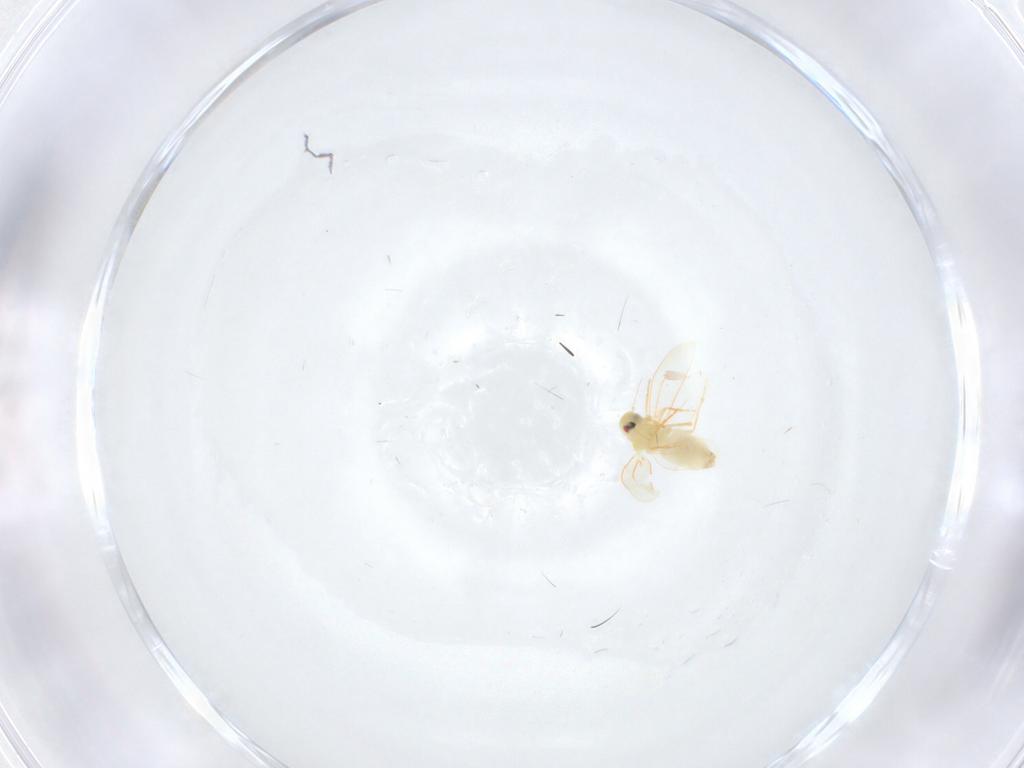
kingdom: Animalia
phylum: Arthropoda
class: Insecta
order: Hemiptera
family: Aleyrodidae
